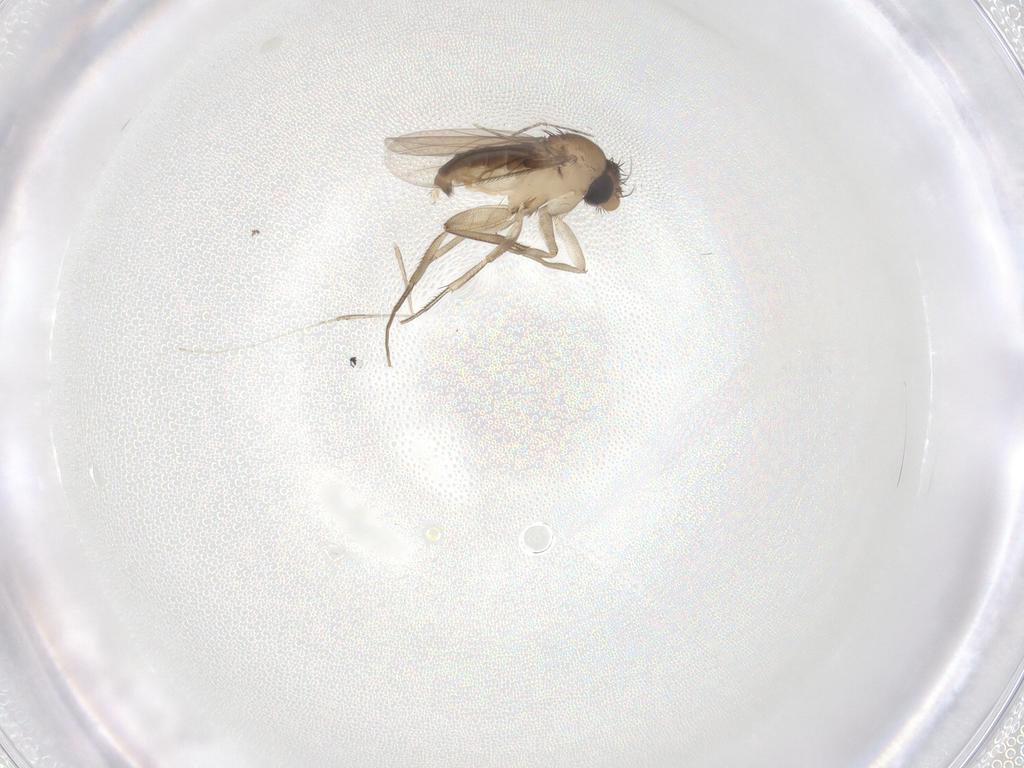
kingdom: Animalia
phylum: Arthropoda
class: Insecta
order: Diptera
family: Phoridae
